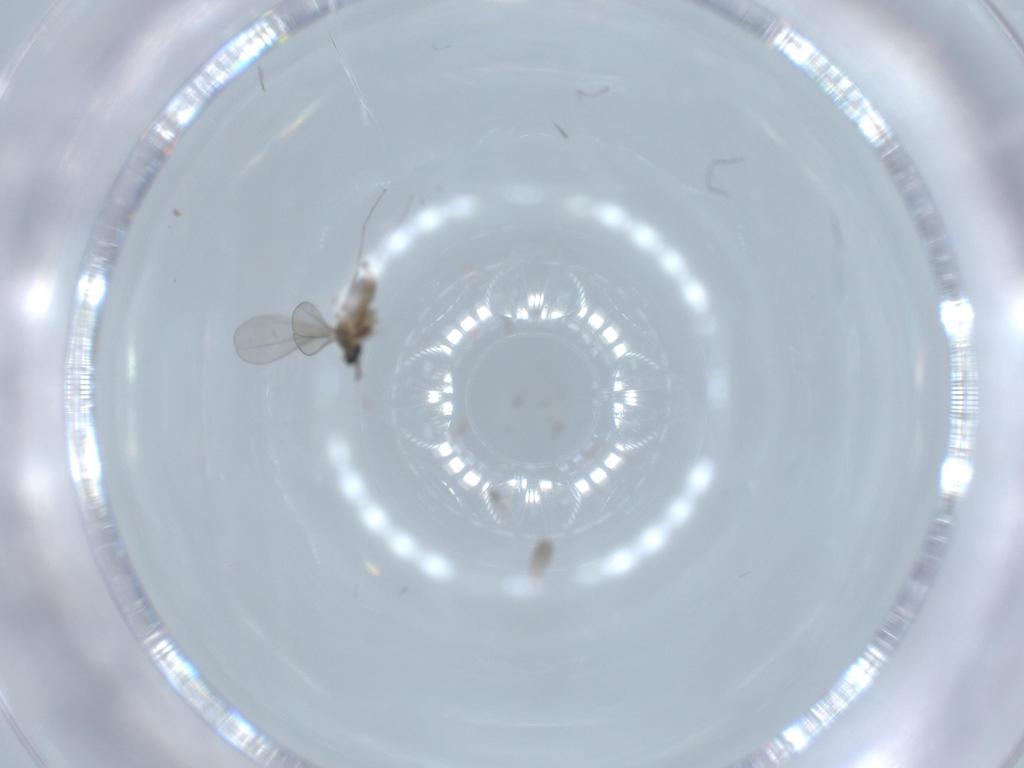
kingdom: Animalia
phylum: Arthropoda
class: Insecta
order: Diptera
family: Cecidomyiidae
